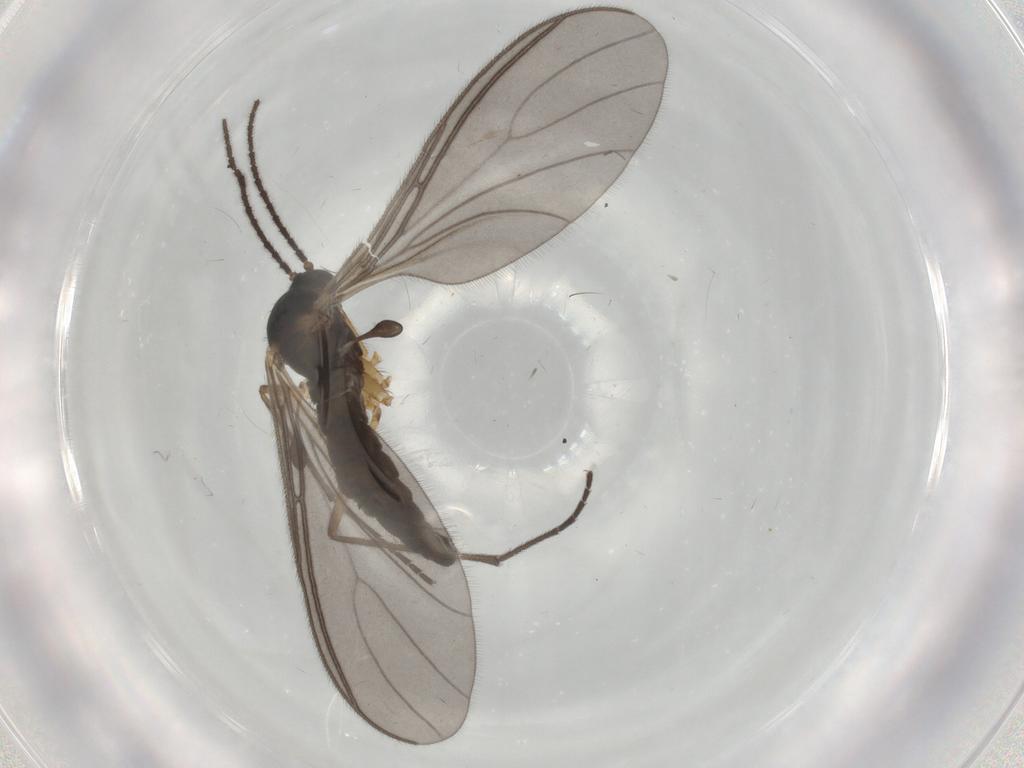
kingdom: Animalia
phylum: Arthropoda
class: Insecta
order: Diptera
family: Sciaridae
